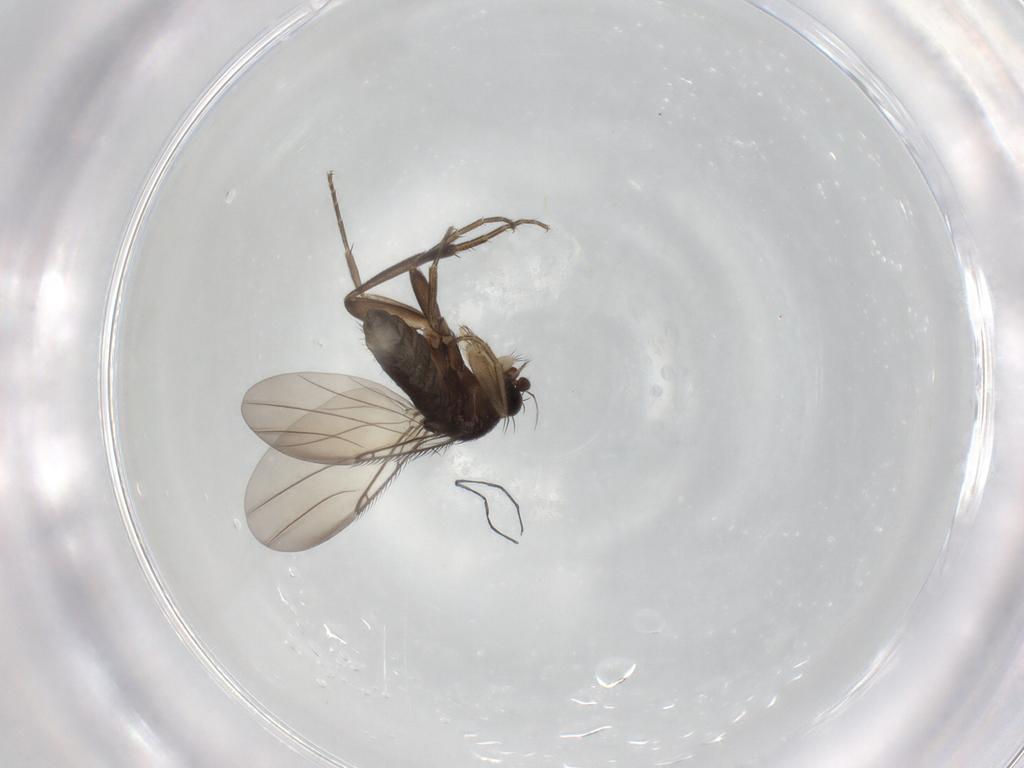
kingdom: Animalia
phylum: Arthropoda
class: Insecta
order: Diptera
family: Phoridae
